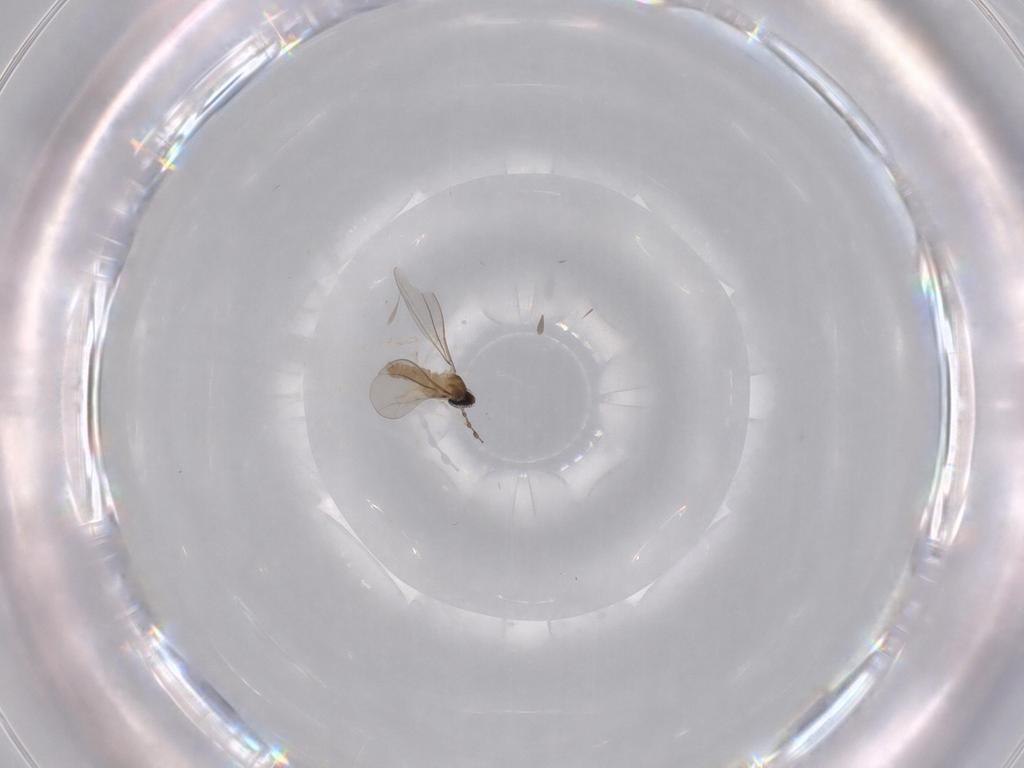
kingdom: Animalia
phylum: Arthropoda
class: Insecta
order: Diptera
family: Cecidomyiidae
